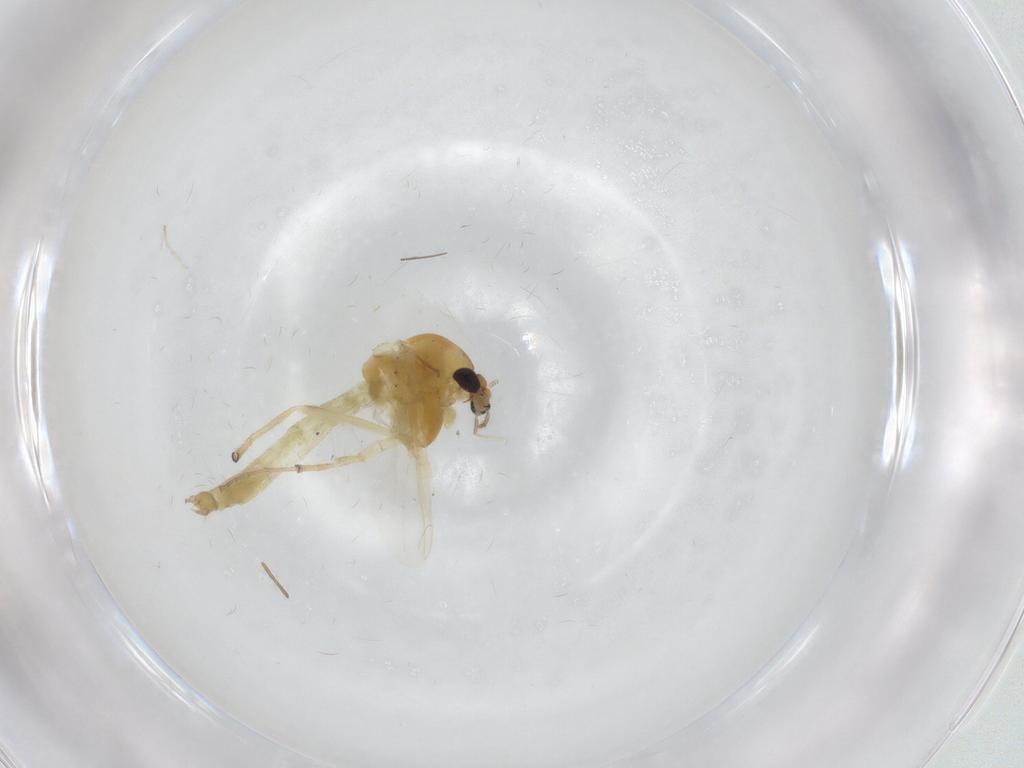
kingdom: Animalia
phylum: Arthropoda
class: Insecta
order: Diptera
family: Chironomidae
